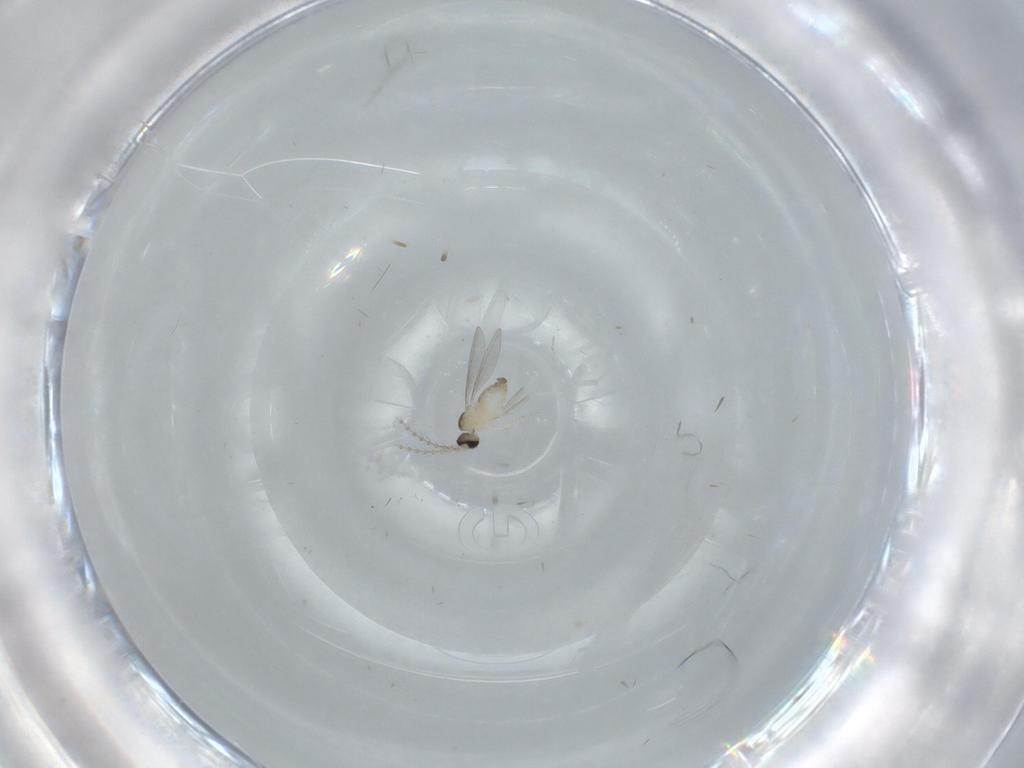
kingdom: Animalia
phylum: Arthropoda
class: Insecta
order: Diptera
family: Cecidomyiidae
